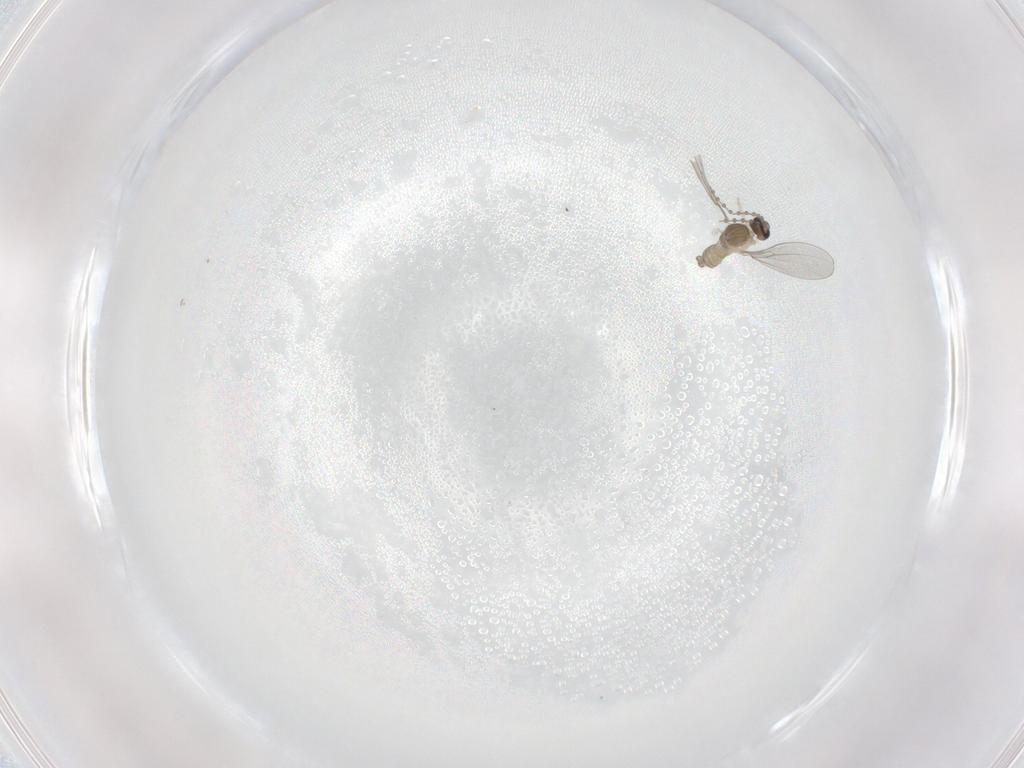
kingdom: Animalia
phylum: Arthropoda
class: Insecta
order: Diptera
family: Cecidomyiidae
